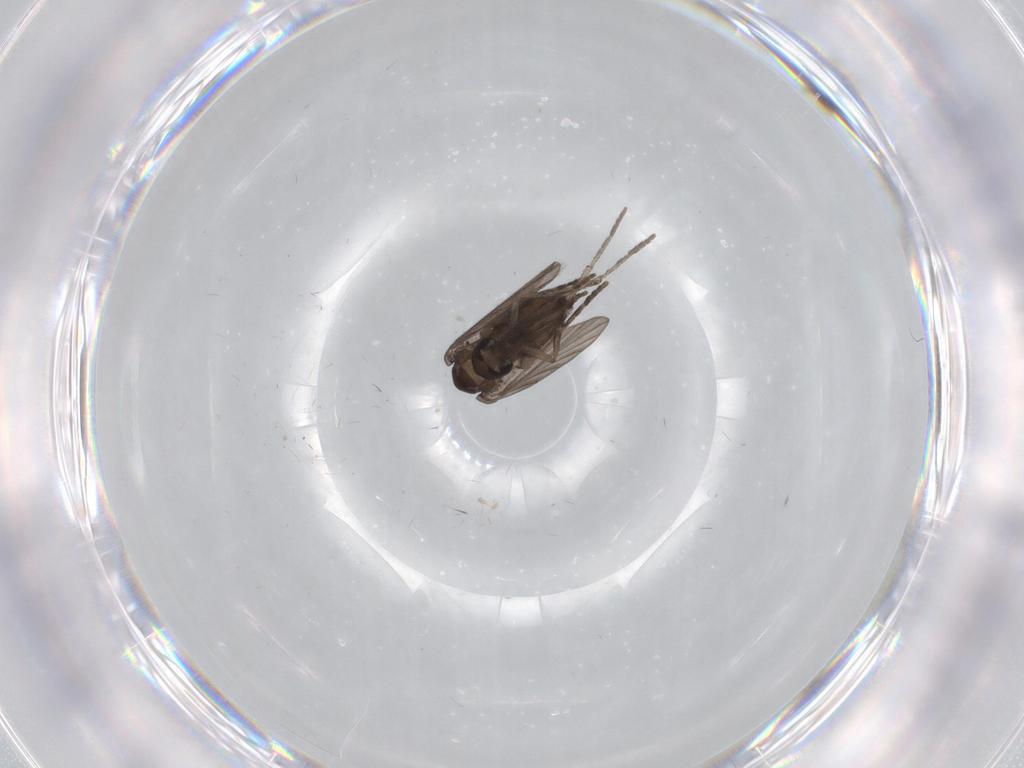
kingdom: Animalia
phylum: Arthropoda
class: Insecta
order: Diptera
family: Psychodidae
